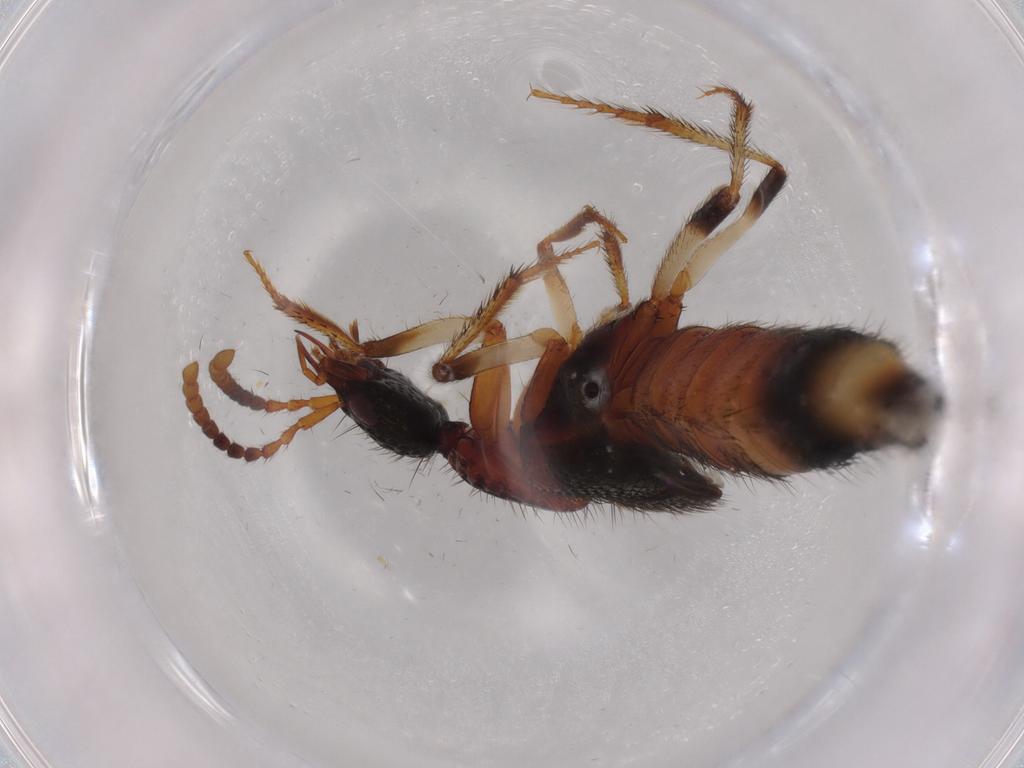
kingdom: Animalia
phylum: Arthropoda
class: Insecta
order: Coleoptera
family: Staphylinidae
